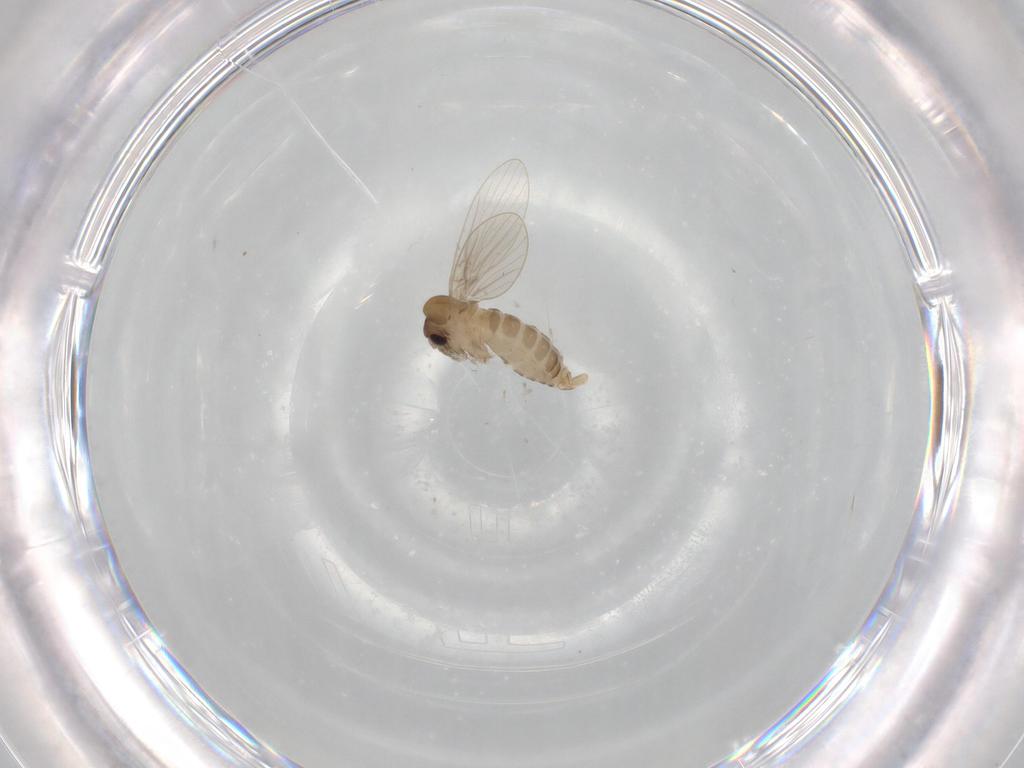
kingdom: Animalia
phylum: Arthropoda
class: Insecta
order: Diptera
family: Psychodidae
